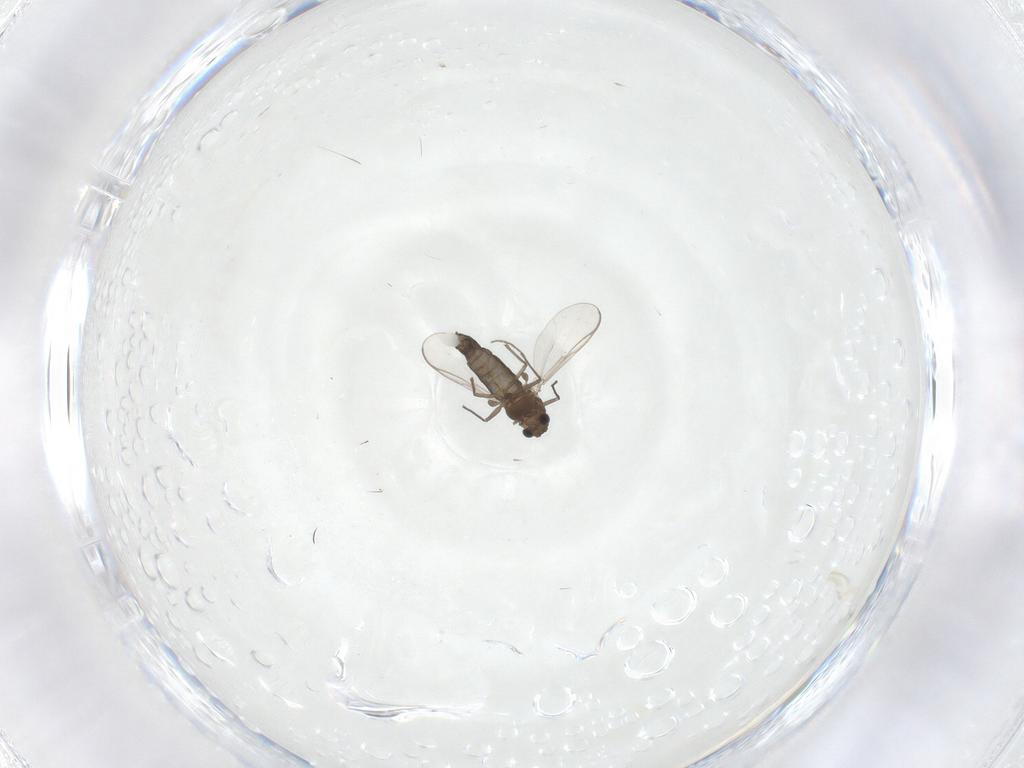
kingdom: Animalia
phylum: Arthropoda
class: Insecta
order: Diptera
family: Chironomidae
